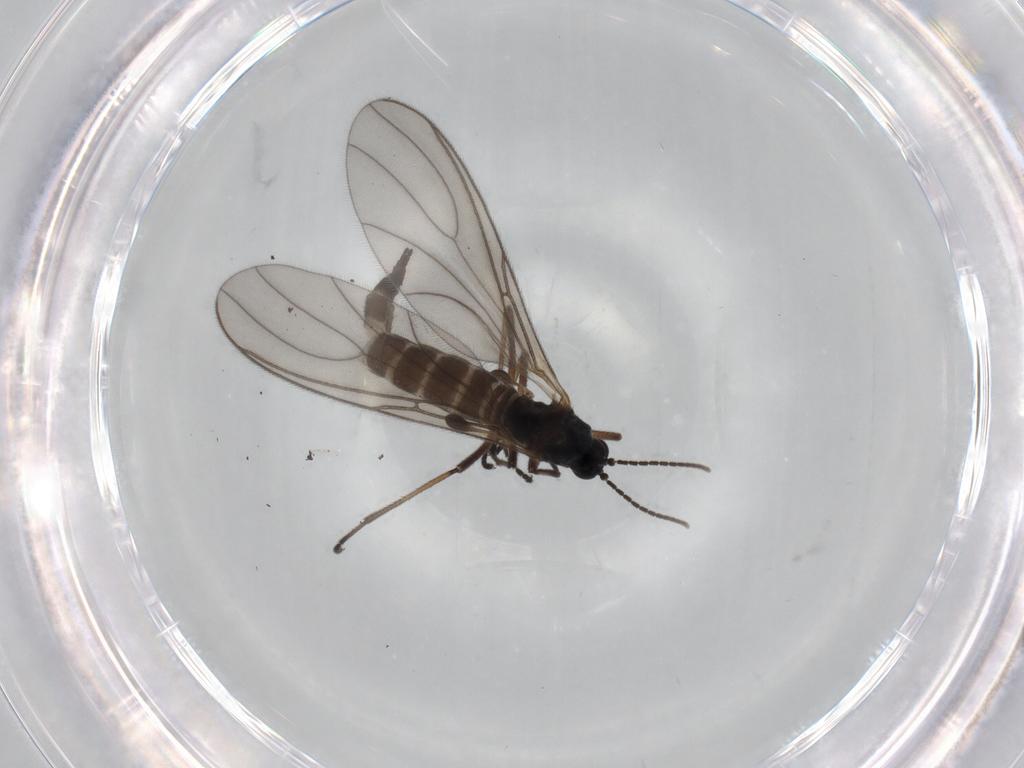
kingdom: Animalia
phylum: Arthropoda
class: Insecta
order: Diptera
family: Sciaridae
